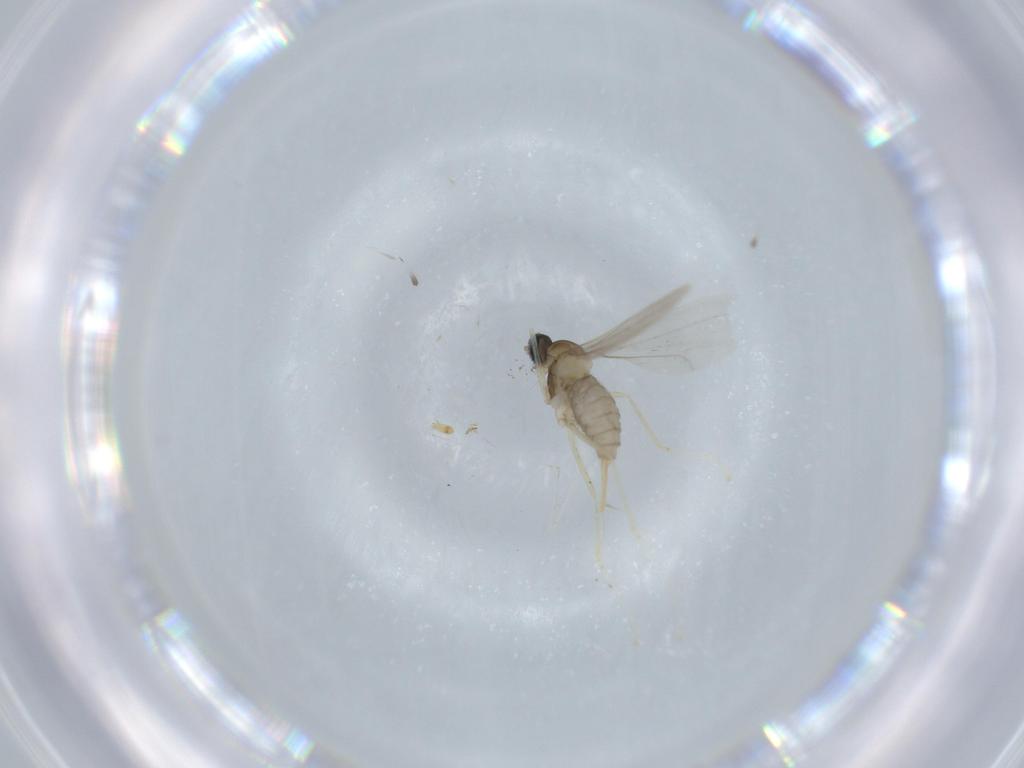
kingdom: Animalia
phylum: Arthropoda
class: Insecta
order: Diptera
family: Cecidomyiidae
